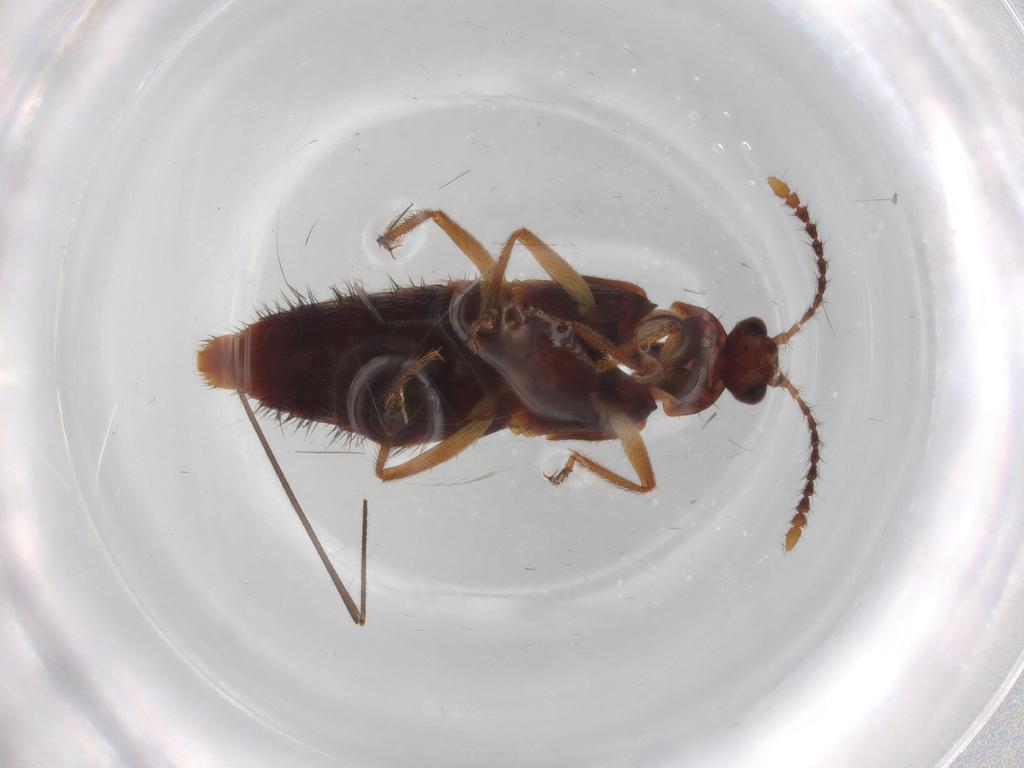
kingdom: Animalia
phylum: Arthropoda
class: Insecta
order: Coleoptera
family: Staphylinidae
